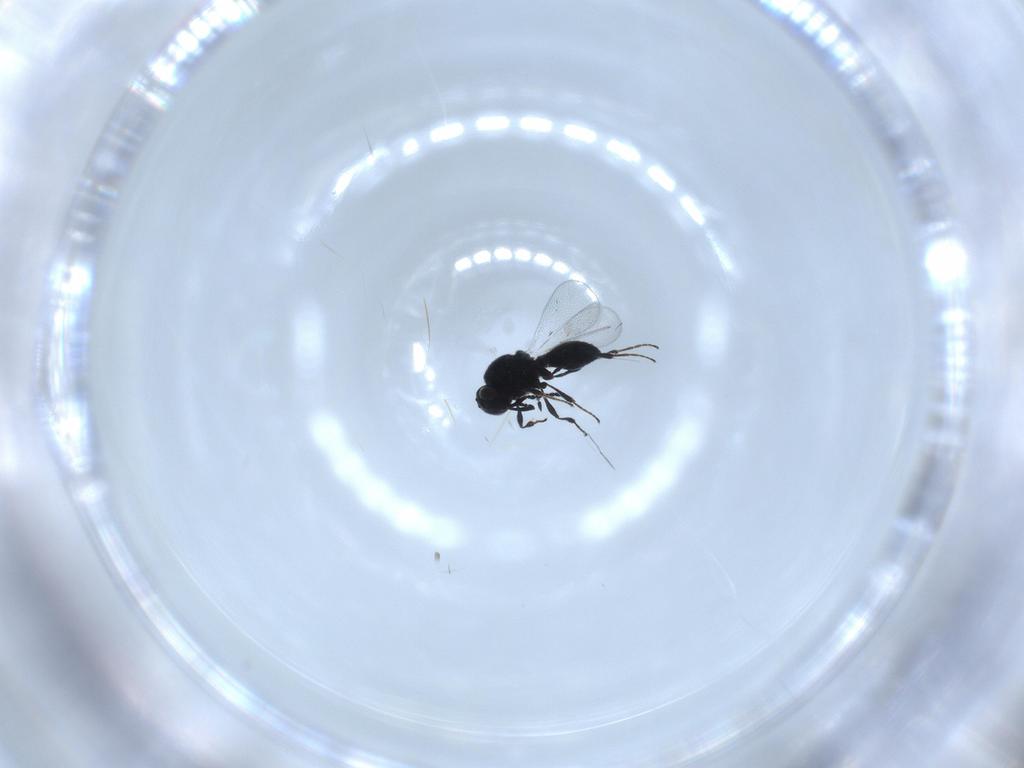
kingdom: Animalia
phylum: Arthropoda
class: Insecta
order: Hymenoptera
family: Platygastridae
